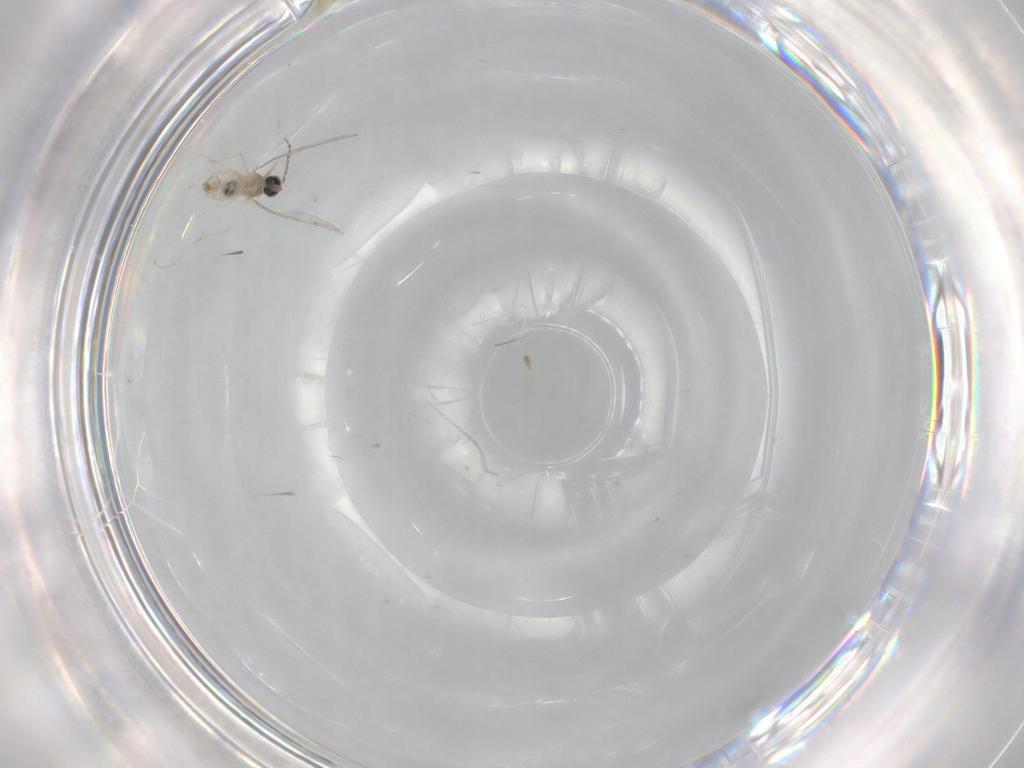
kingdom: Animalia
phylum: Arthropoda
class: Insecta
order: Diptera
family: Cecidomyiidae
